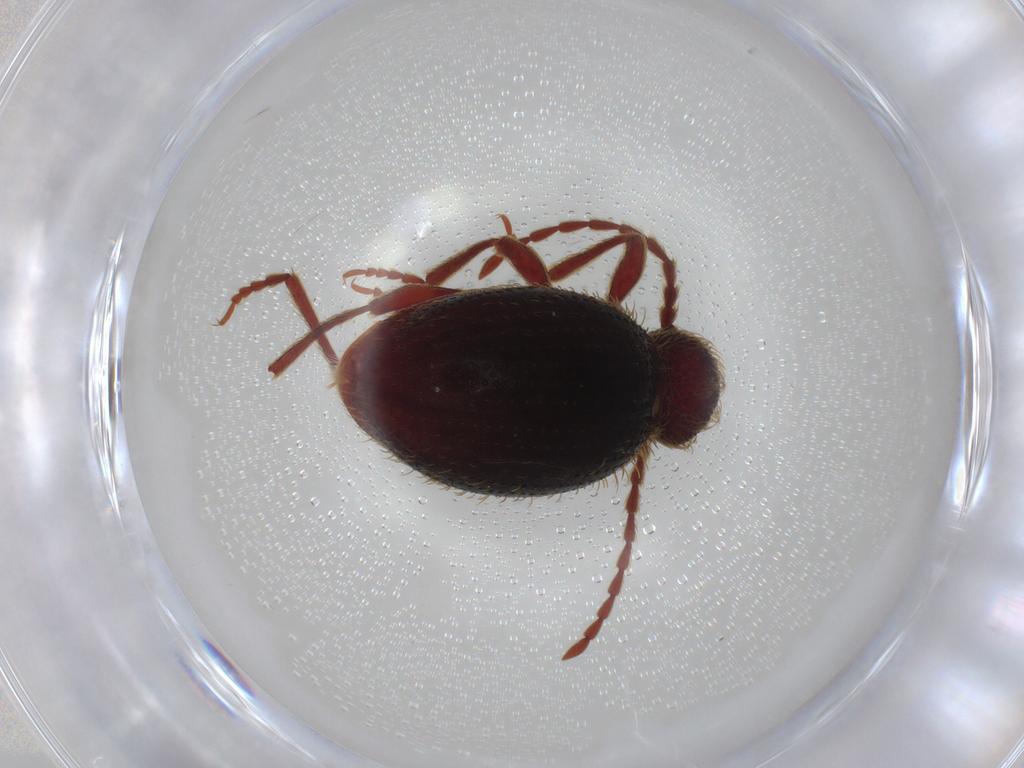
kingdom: Animalia
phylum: Arthropoda
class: Insecta
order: Coleoptera
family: Ptinidae
